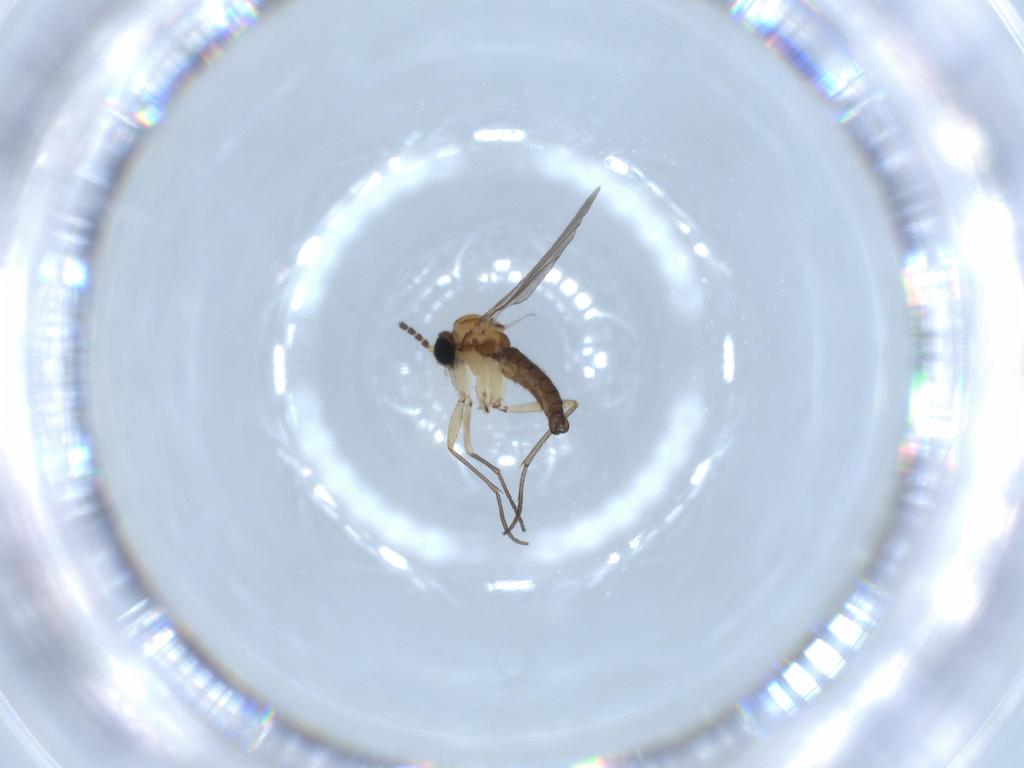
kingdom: Animalia
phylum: Arthropoda
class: Insecta
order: Diptera
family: Sciaridae
